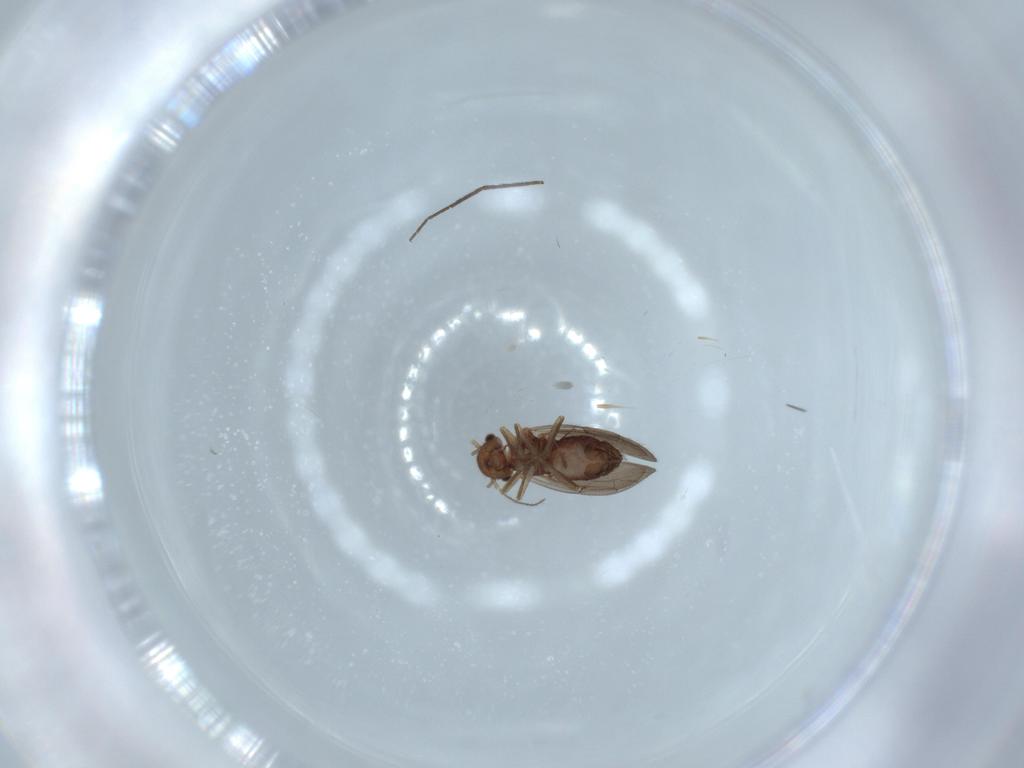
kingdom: Animalia
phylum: Arthropoda
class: Insecta
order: Psocodea
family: Ectopsocidae
